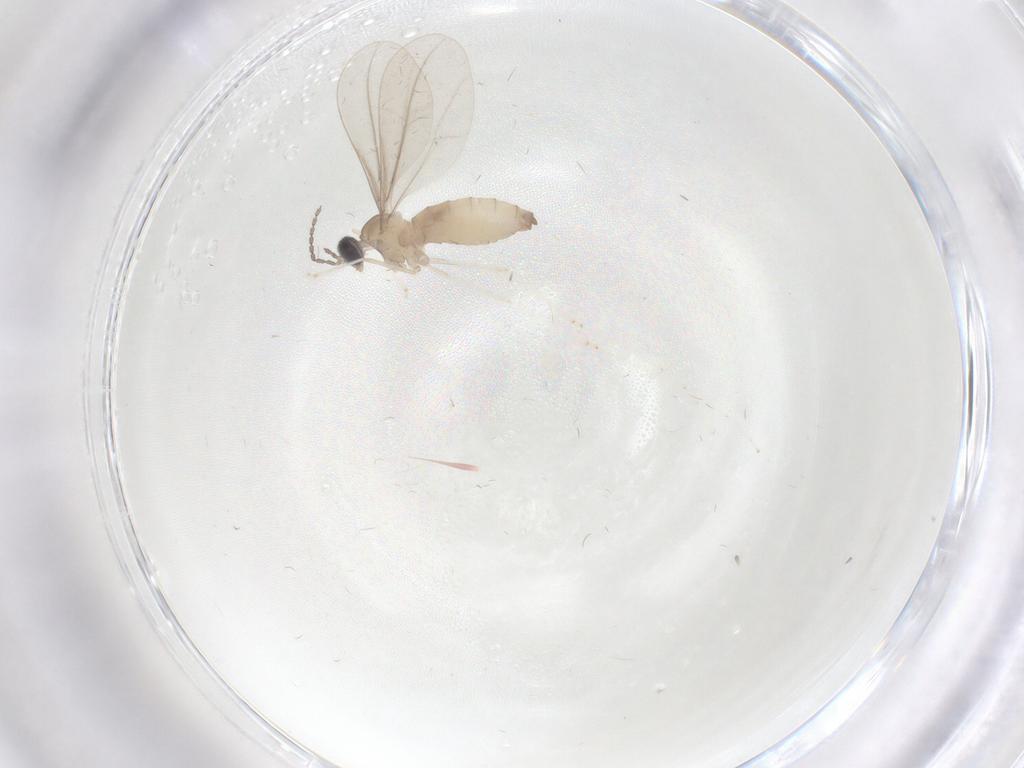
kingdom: Animalia
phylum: Arthropoda
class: Insecta
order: Diptera
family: Cecidomyiidae
